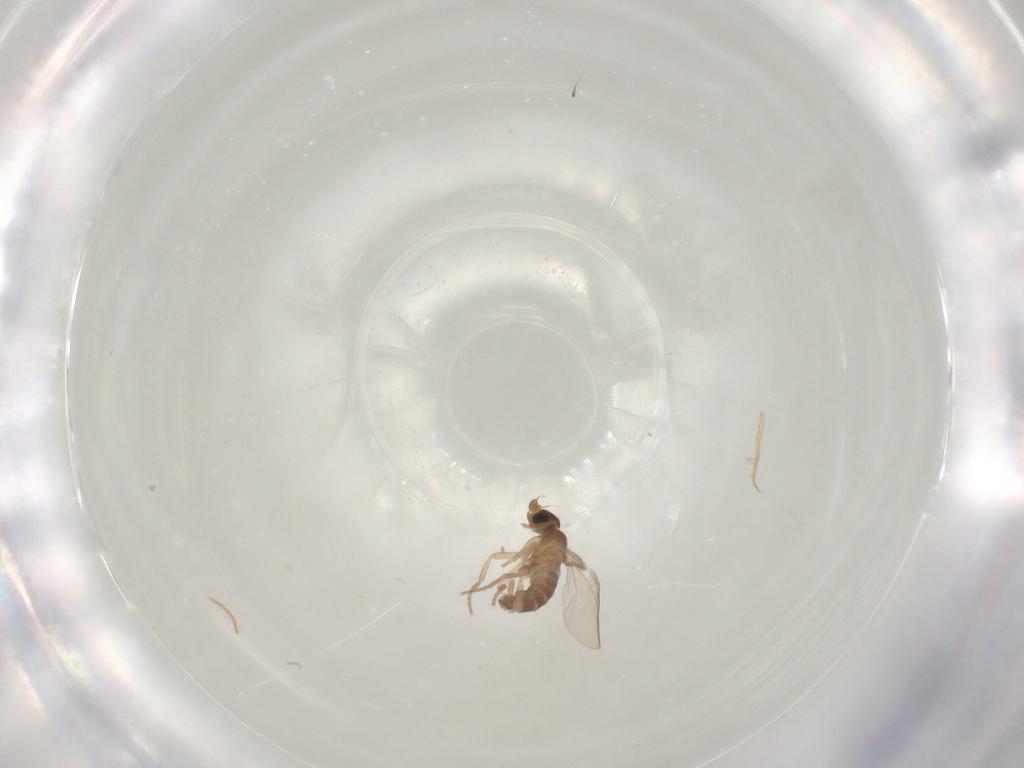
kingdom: Animalia
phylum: Arthropoda
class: Insecta
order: Diptera
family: Phoridae
